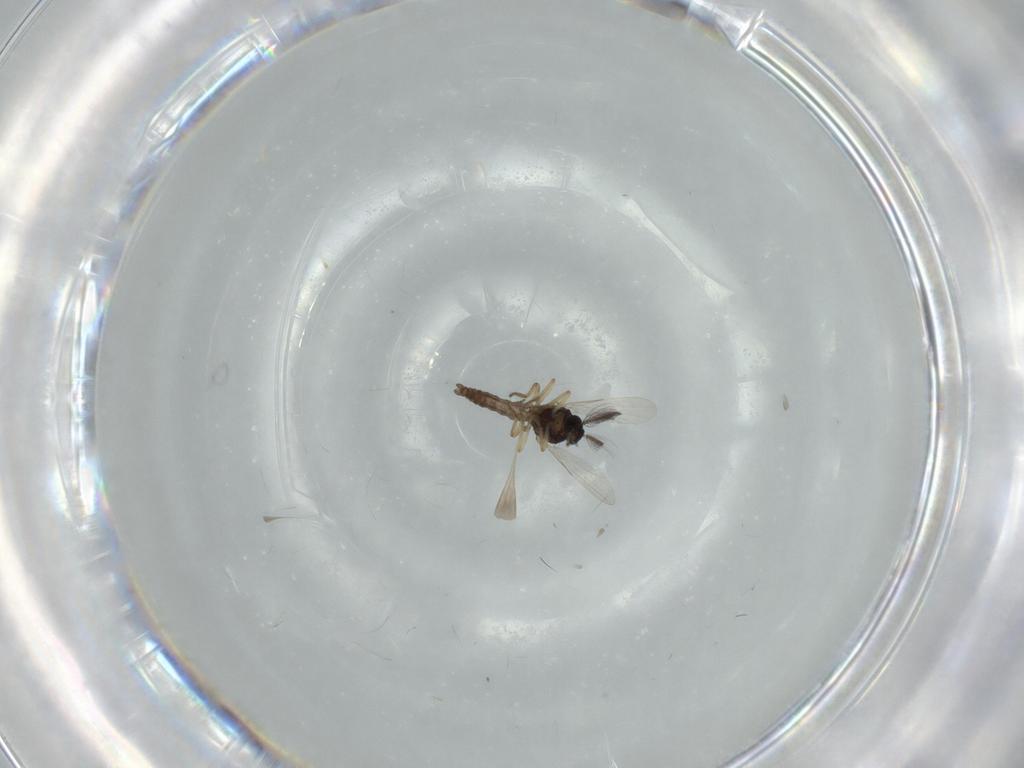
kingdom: Animalia
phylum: Arthropoda
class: Insecta
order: Diptera
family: Ceratopogonidae
